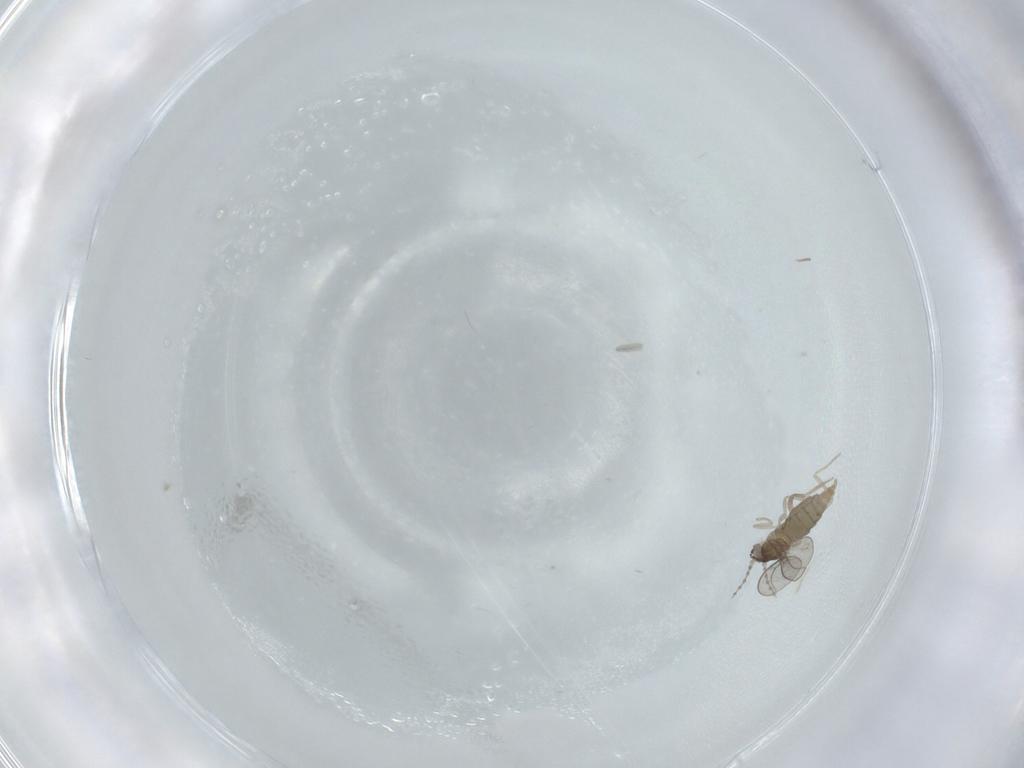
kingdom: Animalia
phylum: Arthropoda
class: Insecta
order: Diptera
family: Cecidomyiidae
